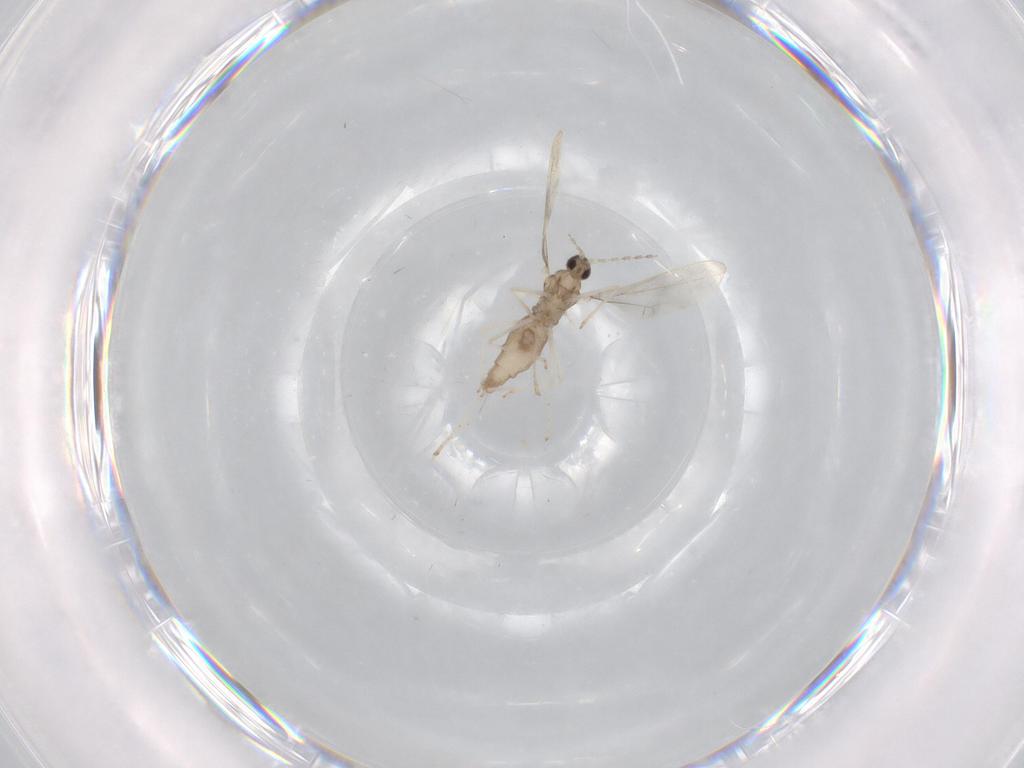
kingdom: Animalia
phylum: Arthropoda
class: Insecta
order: Diptera
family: Cecidomyiidae
